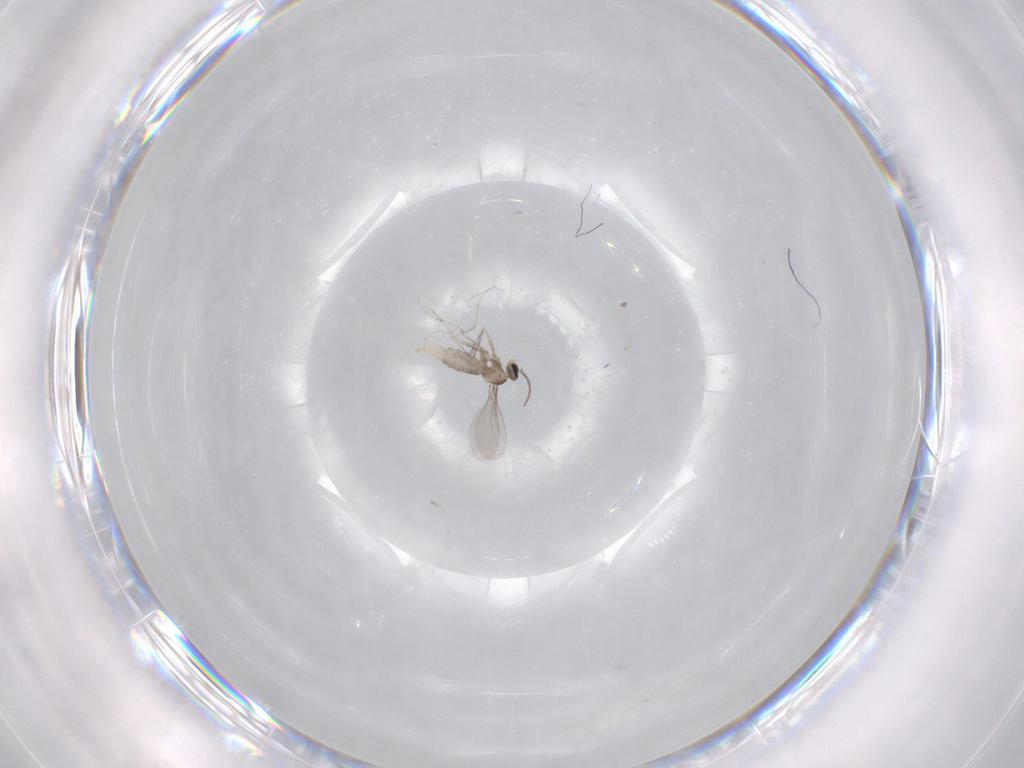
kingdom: Animalia
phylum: Arthropoda
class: Insecta
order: Diptera
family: Cecidomyiidae
